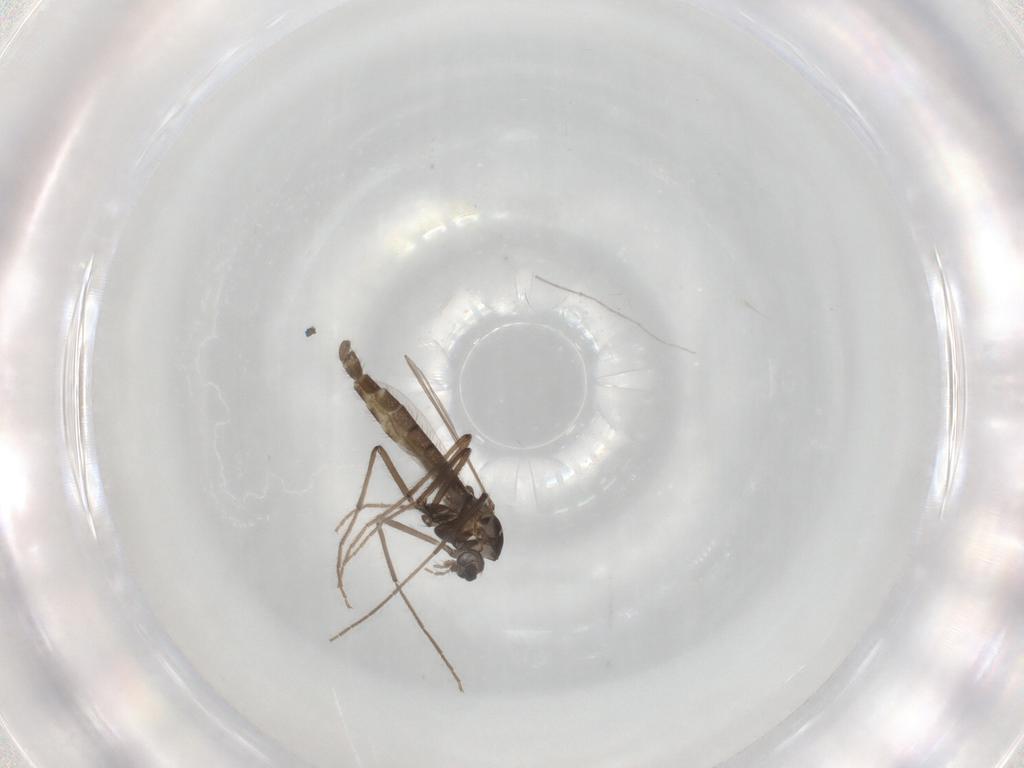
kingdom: Animalia
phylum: Arthropoda
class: Insecta
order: Diptera
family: Chironomidae
